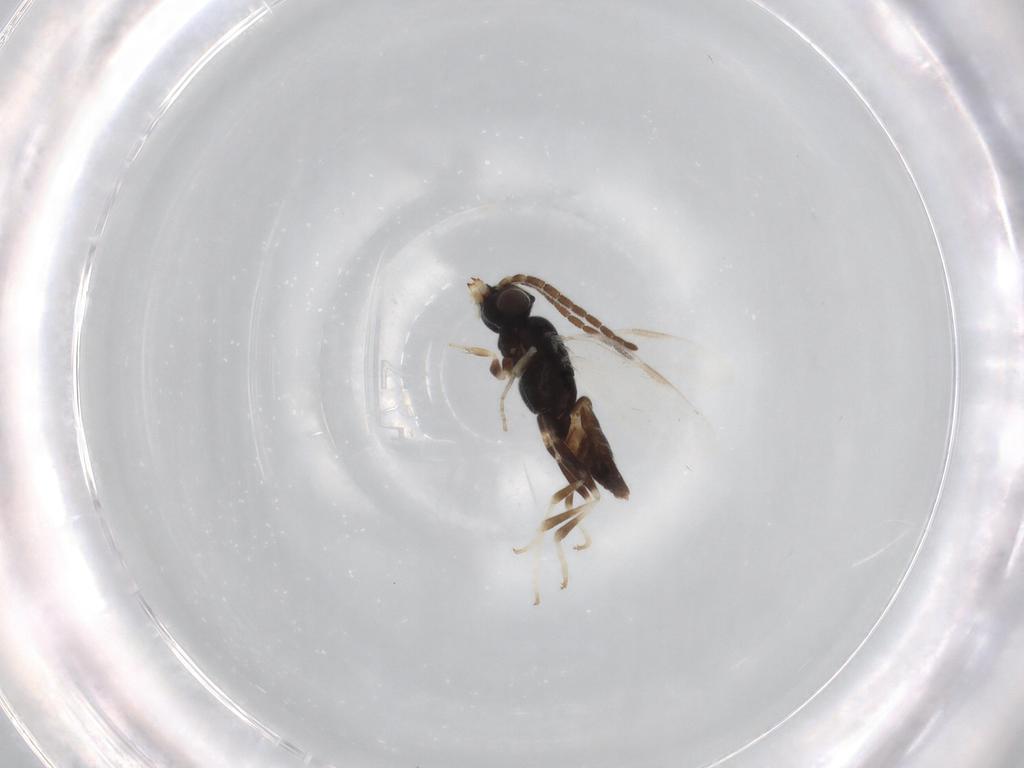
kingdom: Animalia
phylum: Arthropoda
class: Insecta
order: Hymenoptera
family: Dryinidae
